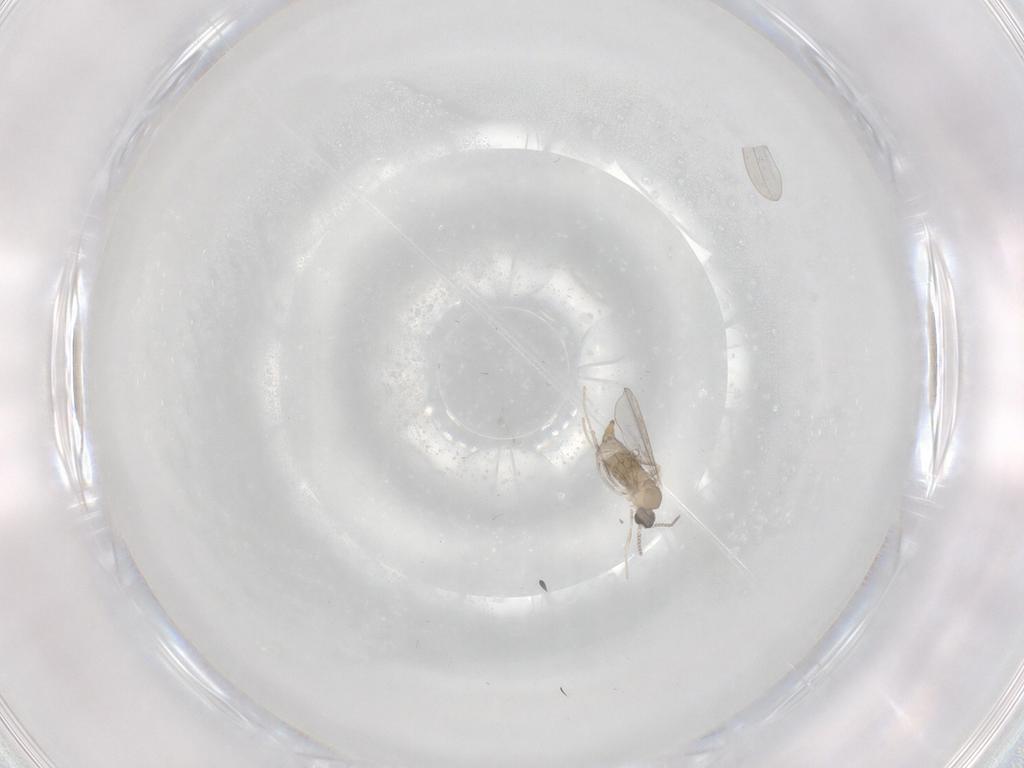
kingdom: Animalia
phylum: Arthropoda
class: Insecta
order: Diptera
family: Cecidomyiidae
